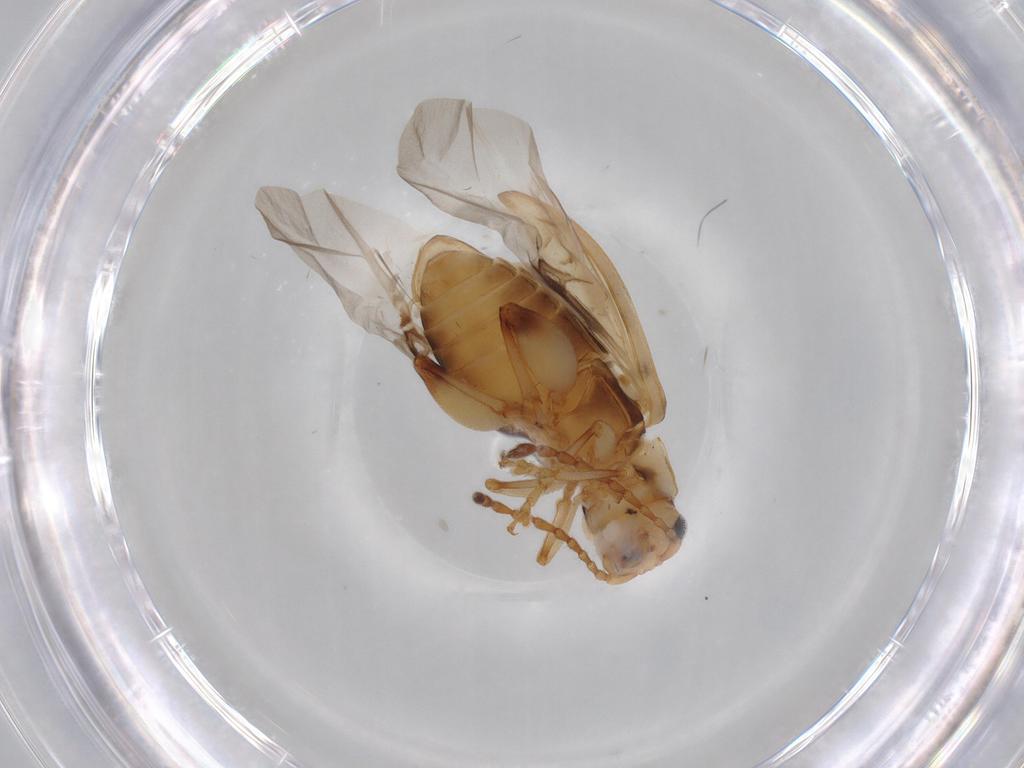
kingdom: Animalia
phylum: Arthropoda
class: Insecta
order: Coleoptera
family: Chrysomelidae
